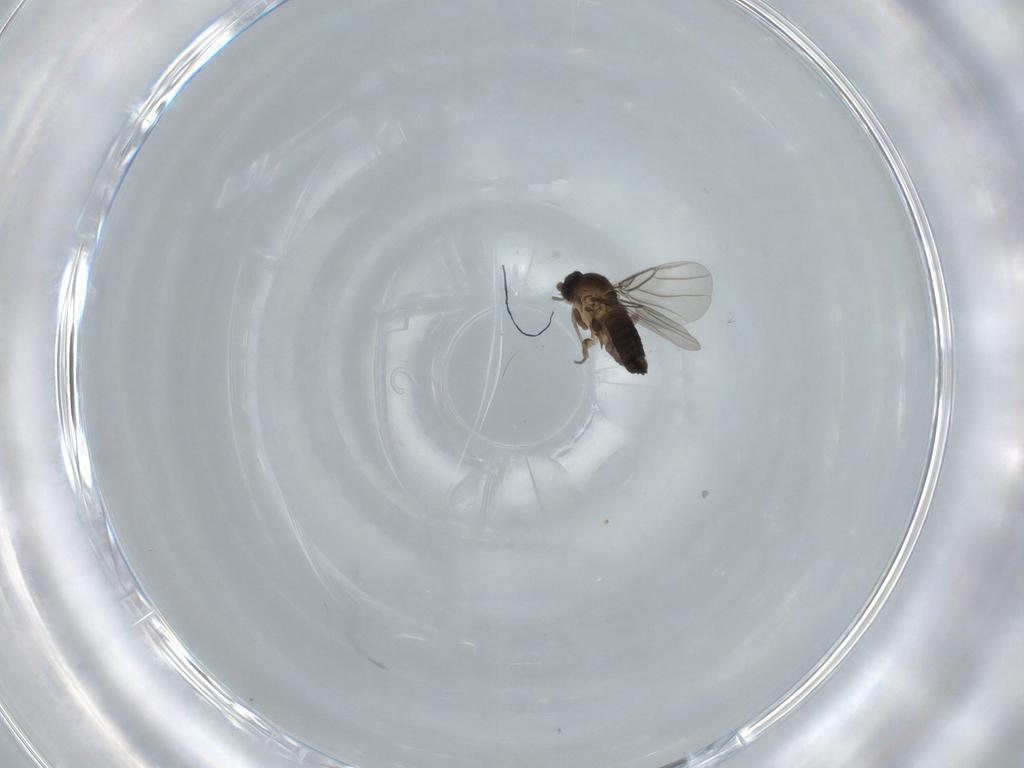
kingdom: Animalia
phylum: Arthropoda
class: Insecta
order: Diptera
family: Phoridae
